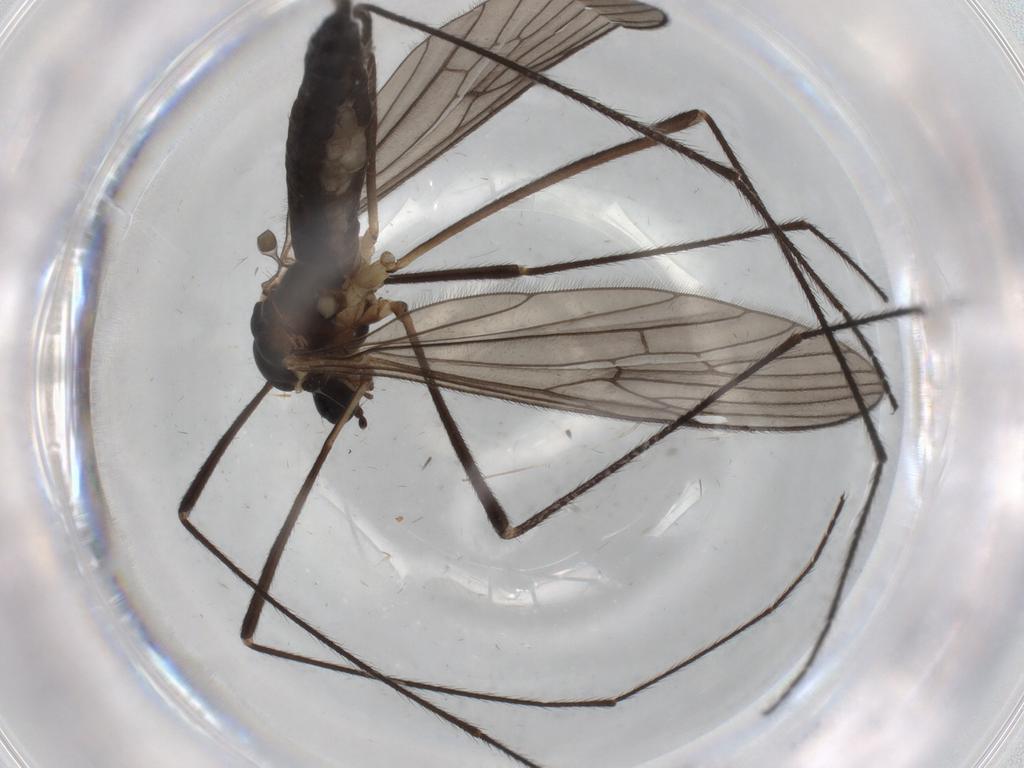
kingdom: Animalia
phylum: Arthropoda
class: Insecta
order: Diptera
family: Limoniidae
